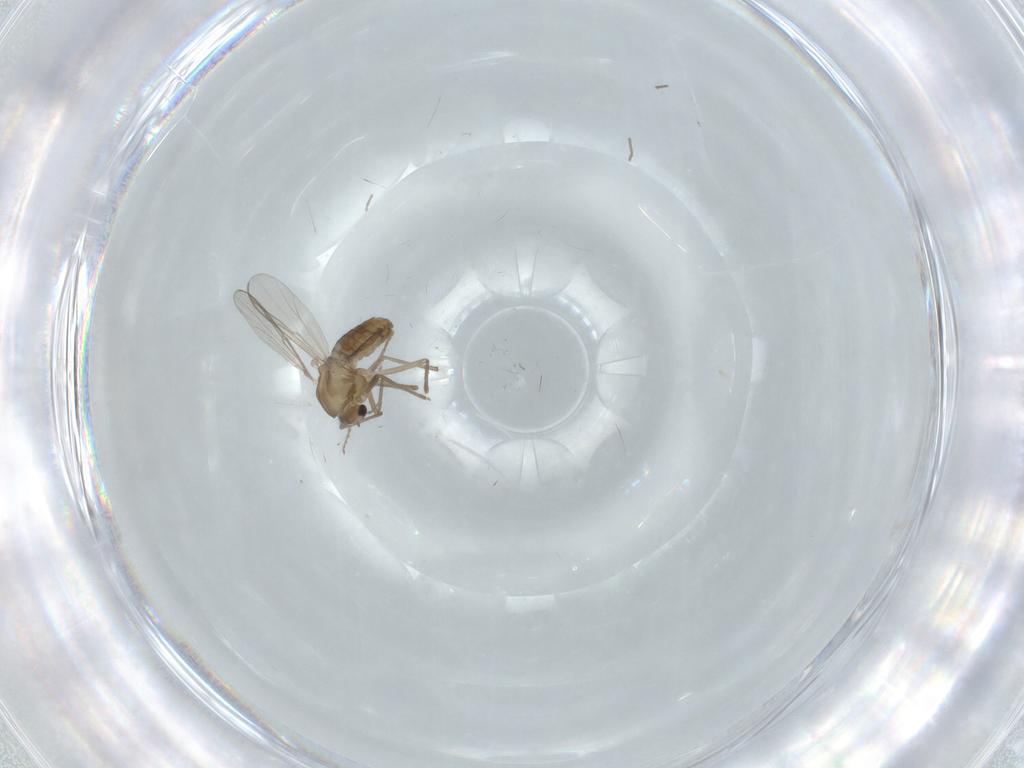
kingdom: Animalia
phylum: Arthropoda
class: Insecta
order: Diptera
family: Chironomidae
